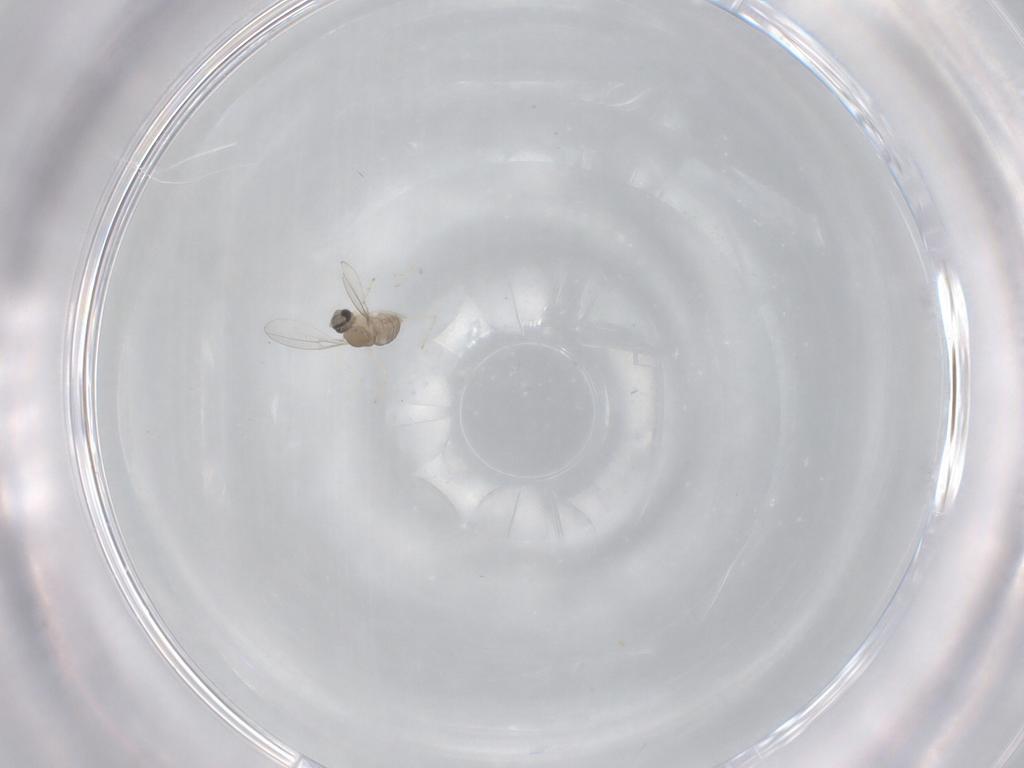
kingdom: Animalia
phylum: Arthropoda
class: Insecta
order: Diptera
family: Cecidomyiidae
